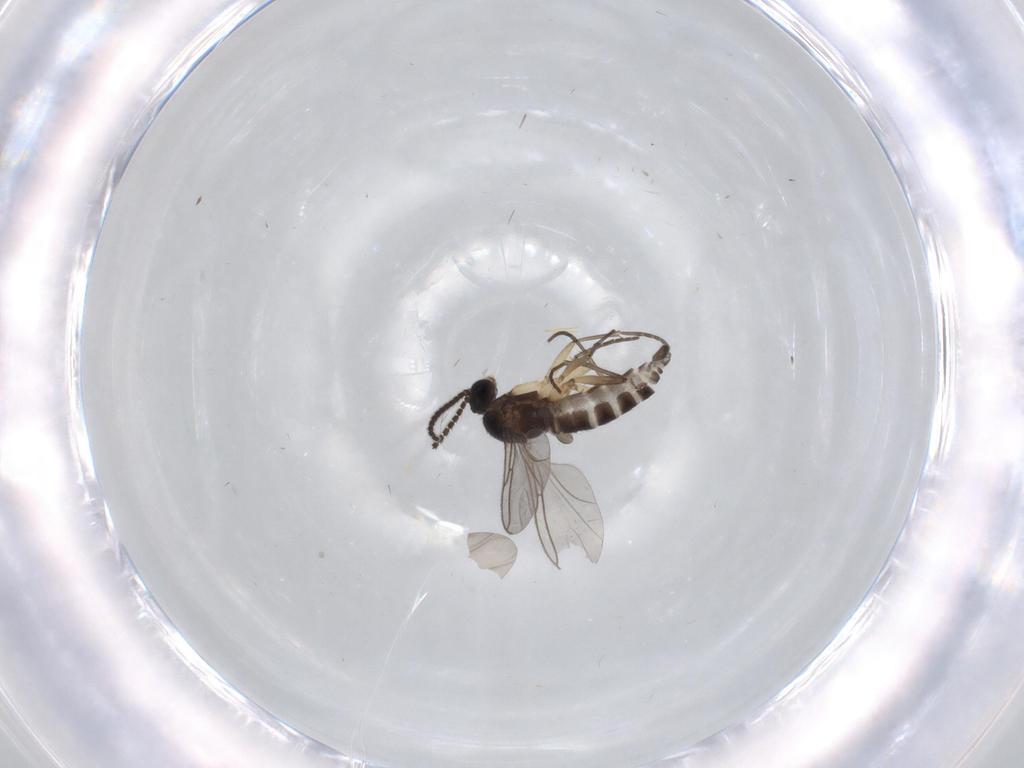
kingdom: Animalia
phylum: Arthropoda
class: Insecta
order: Diptera
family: Sciaridae
